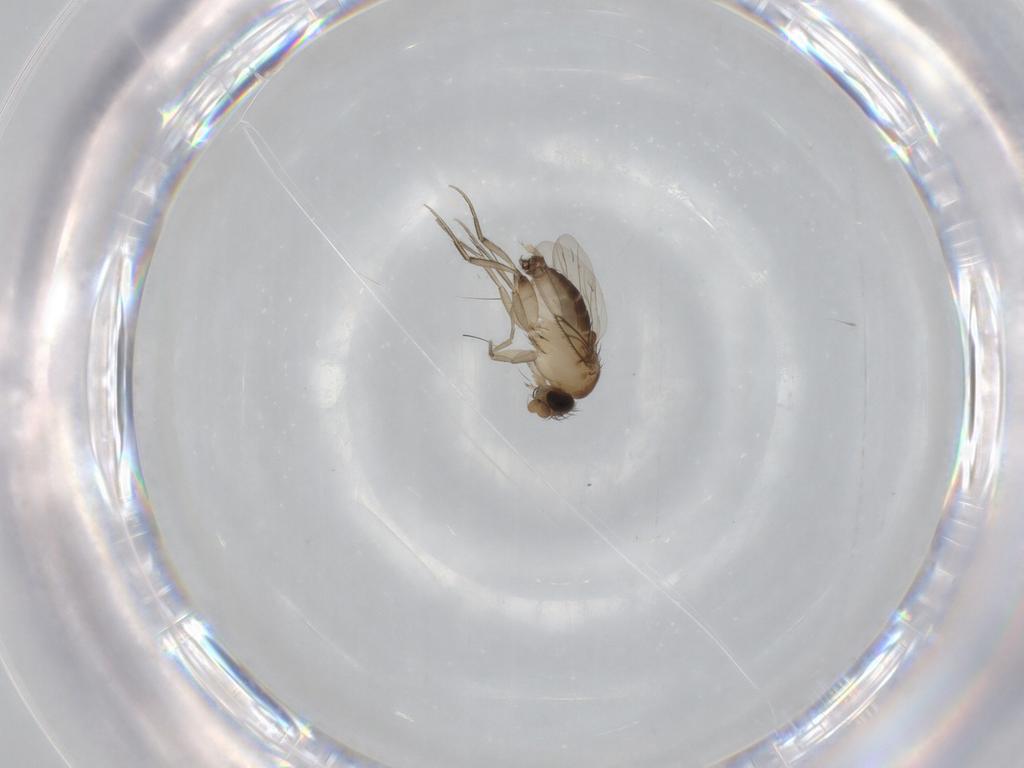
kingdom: Animalia
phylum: Arthropoda
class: Insecta
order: Diptera
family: Phoridae
